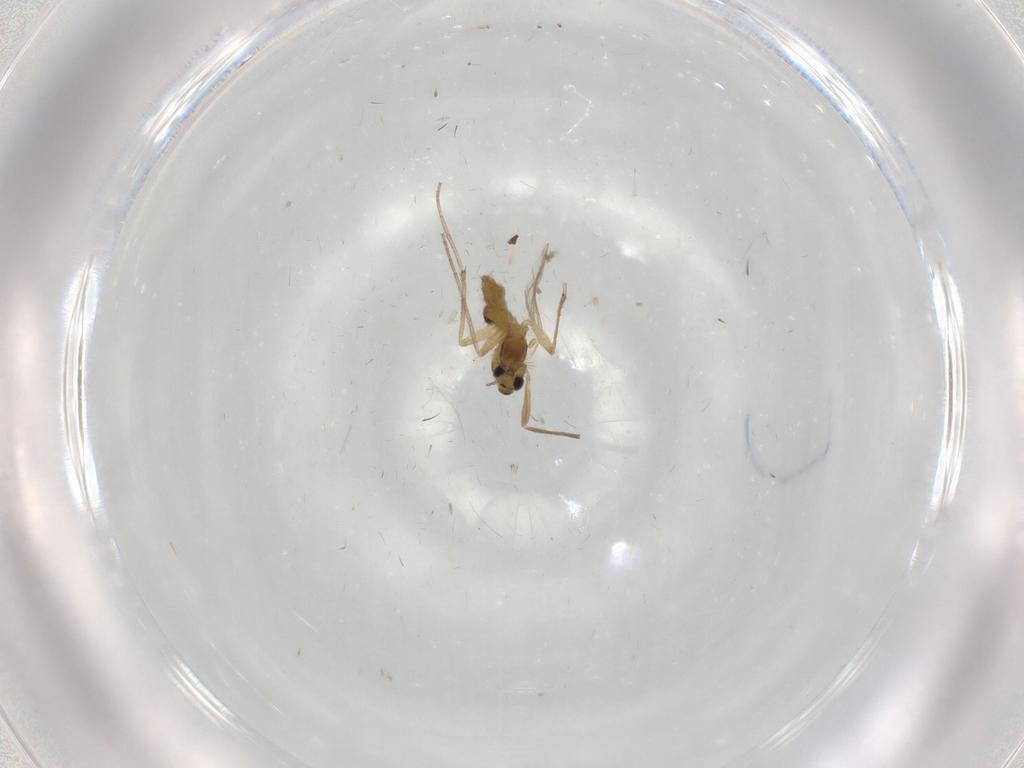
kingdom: Animalia
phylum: Arthropoda
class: Insecta
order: Diptera
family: Chironomidae
